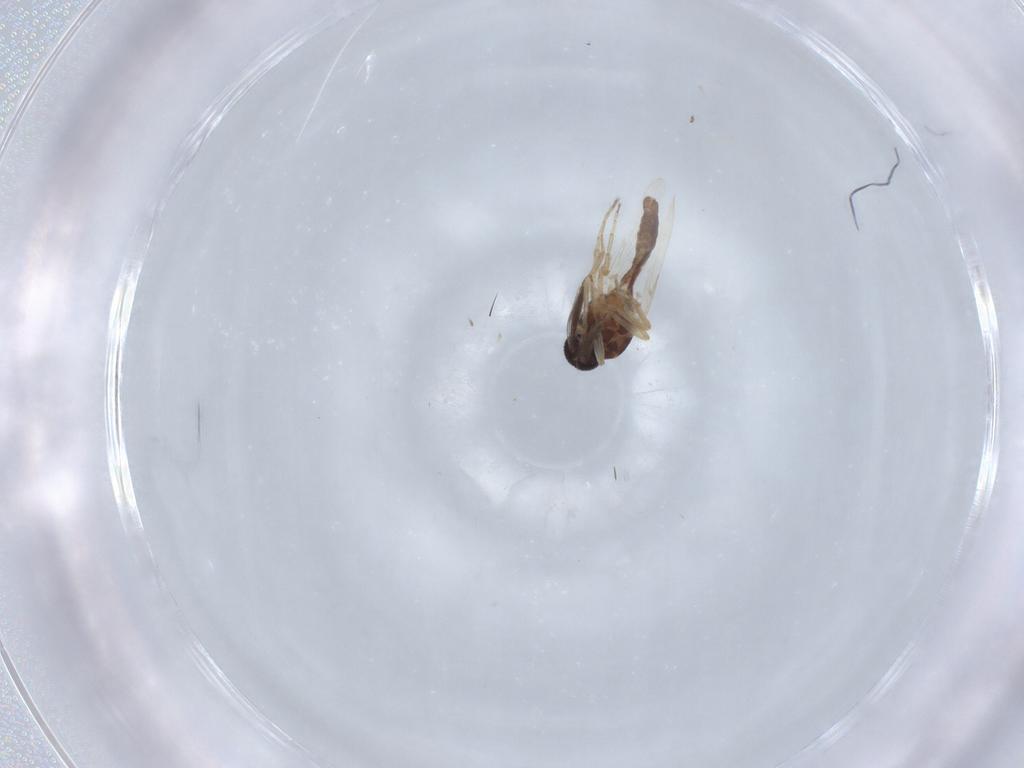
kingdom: Animalia
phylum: Arthropoda
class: Insecta
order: Diptera
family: Ceratopogonidae
